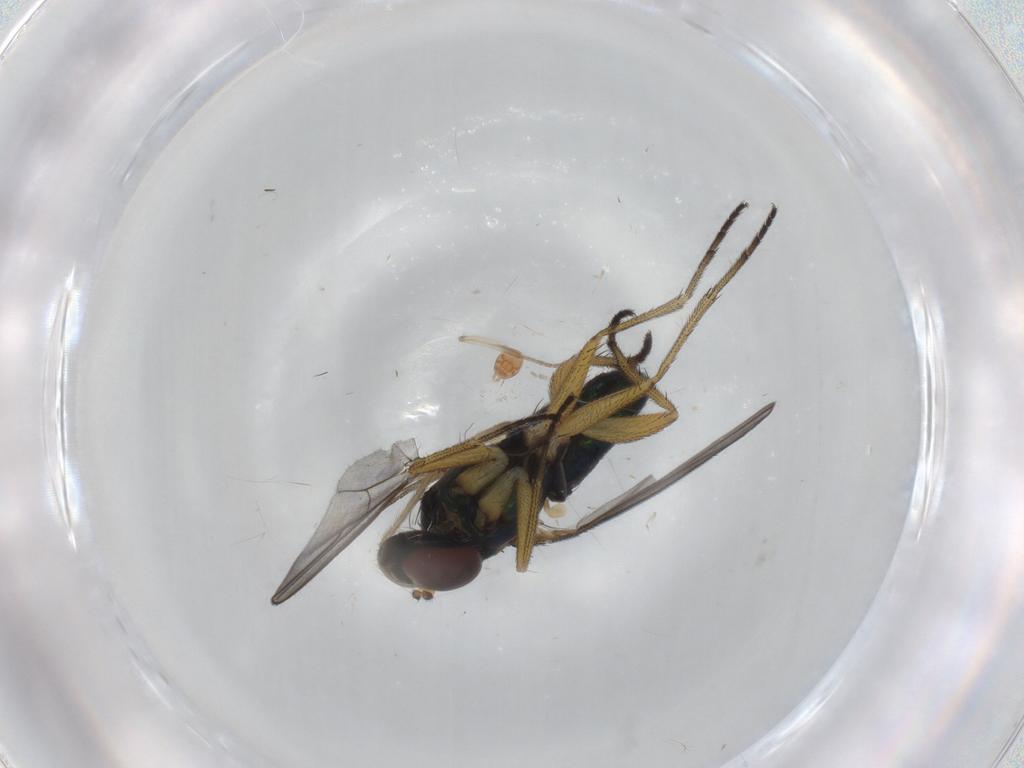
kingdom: Animalia
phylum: Arthropoda
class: Insecta
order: Diptera
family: Dolichopodidae
